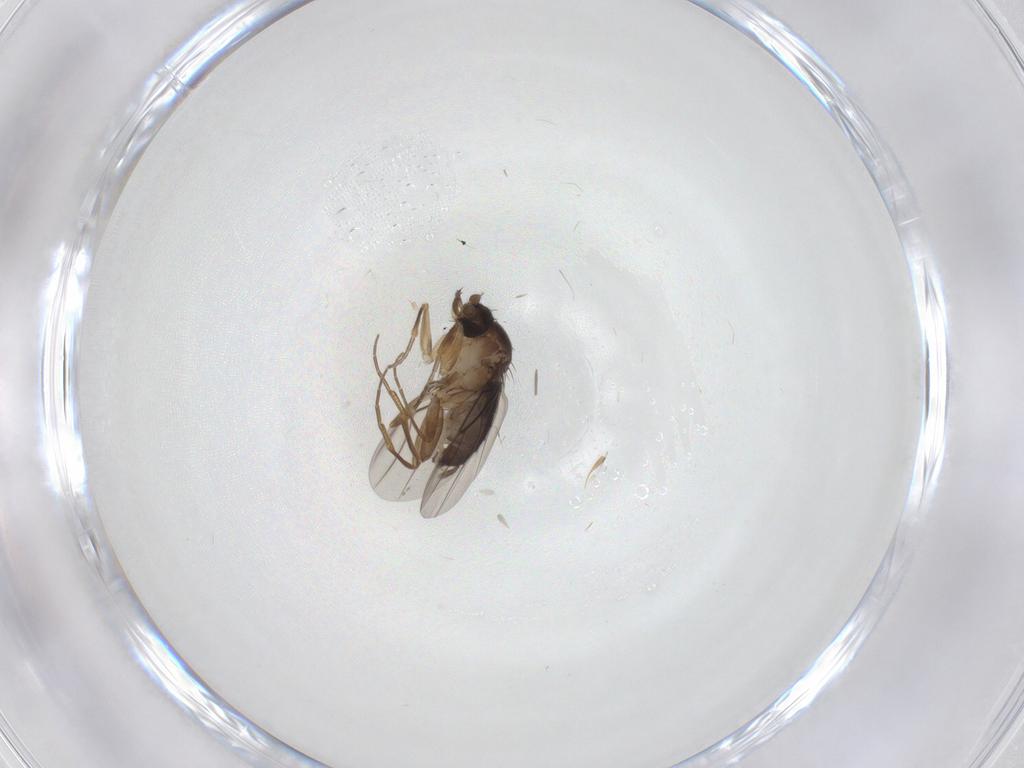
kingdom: Animalia
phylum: Arthropoda
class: Insecta
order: Diptera
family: Phoridae
